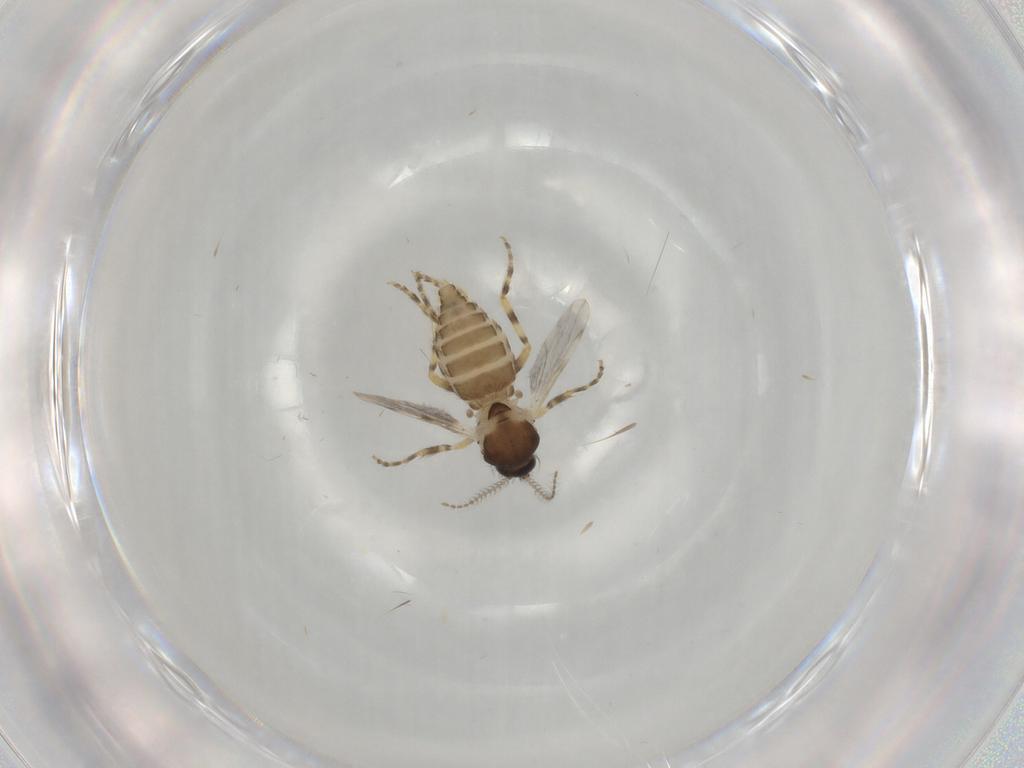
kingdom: Animalia
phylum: Arthropoda
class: Insecta
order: Diptera
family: Ceratopogonidae
